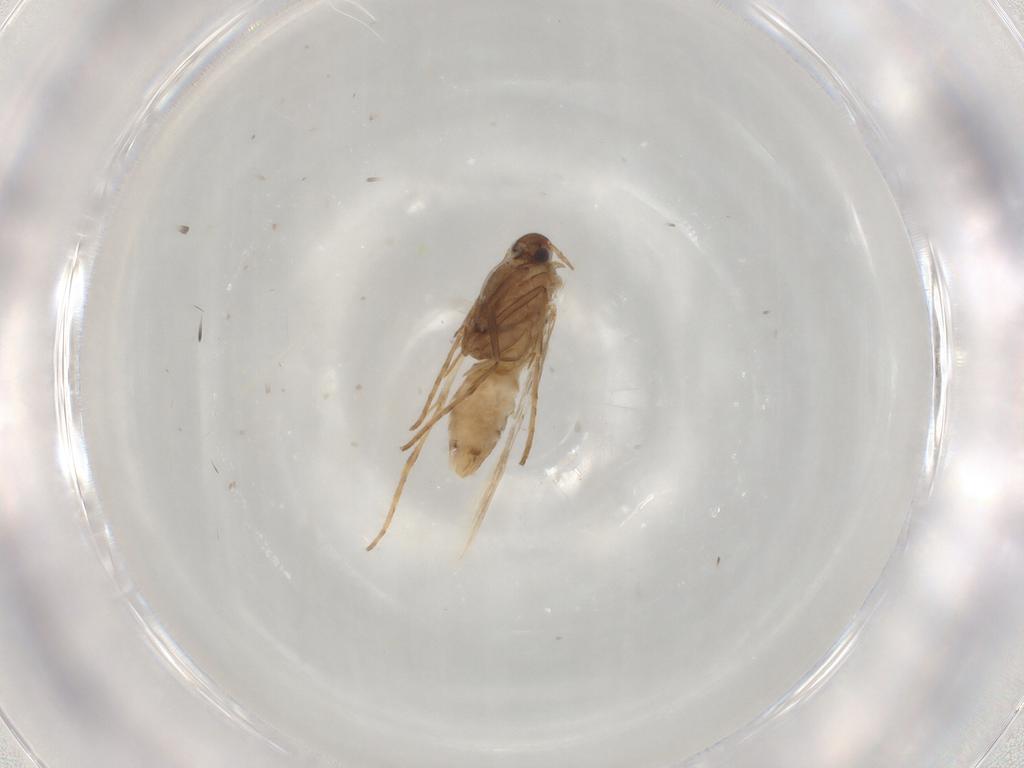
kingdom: Animalia
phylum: Arthropoda
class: Insecta
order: Lepidoptera
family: Gracillariidae
